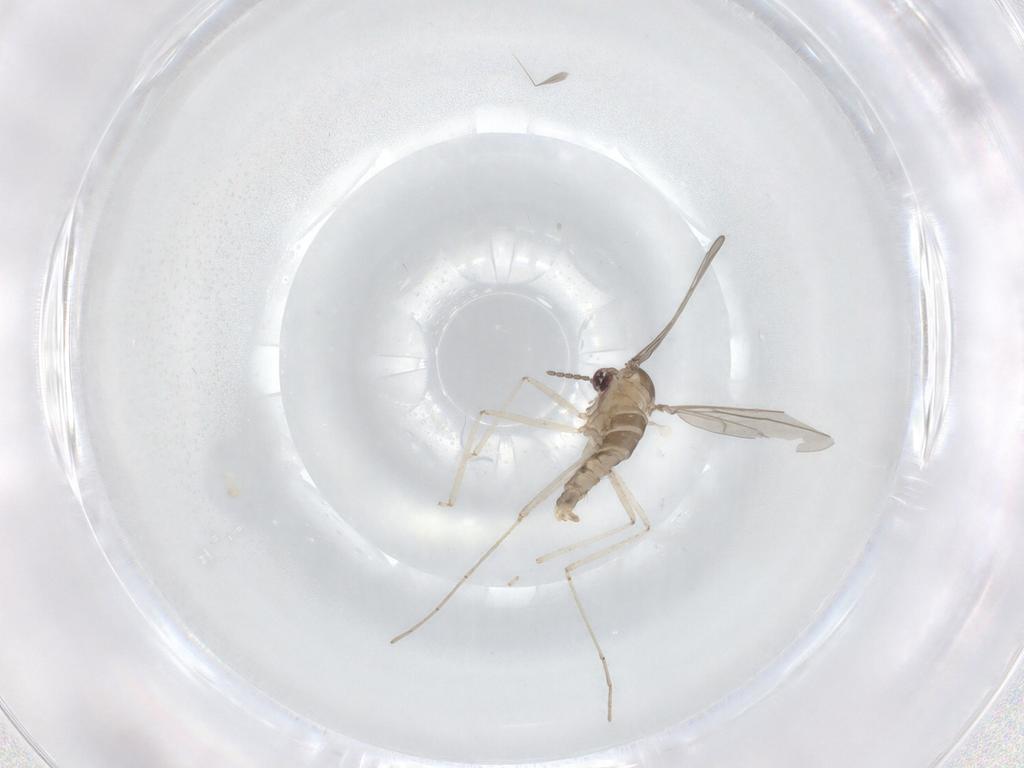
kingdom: Animalia
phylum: Arthropoda
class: Insecta
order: Diptera
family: Cecidomyiidae
